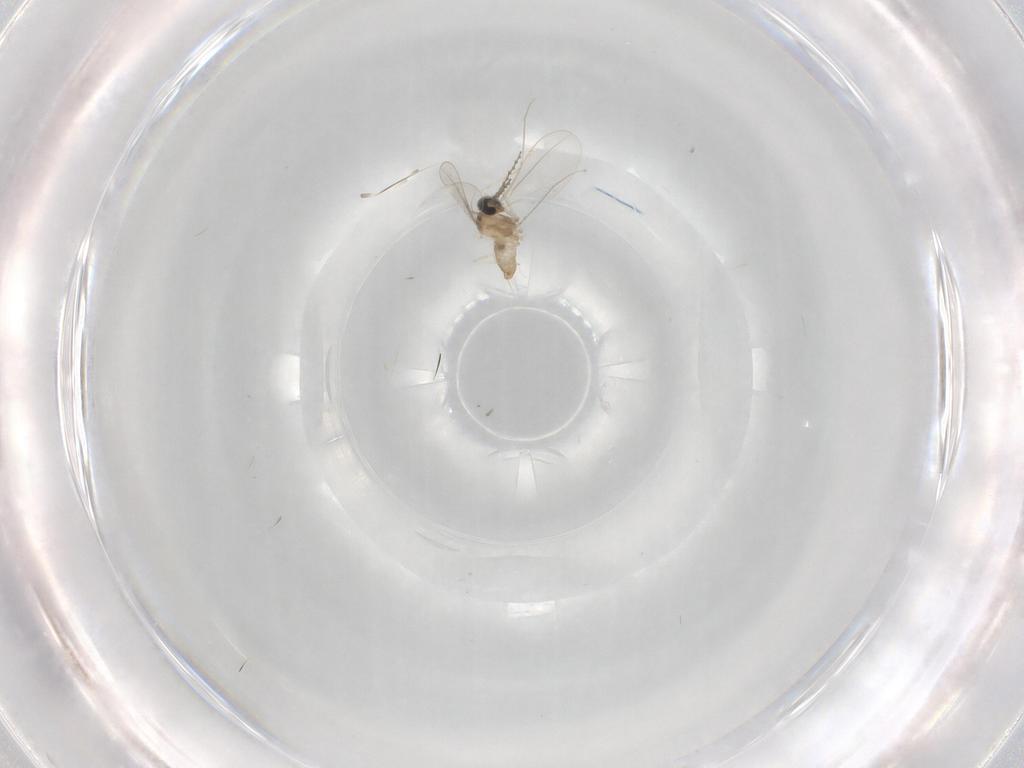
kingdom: Animalia
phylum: Arthropoda
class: Insecta
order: Diptera
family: Cecidomyiidae
